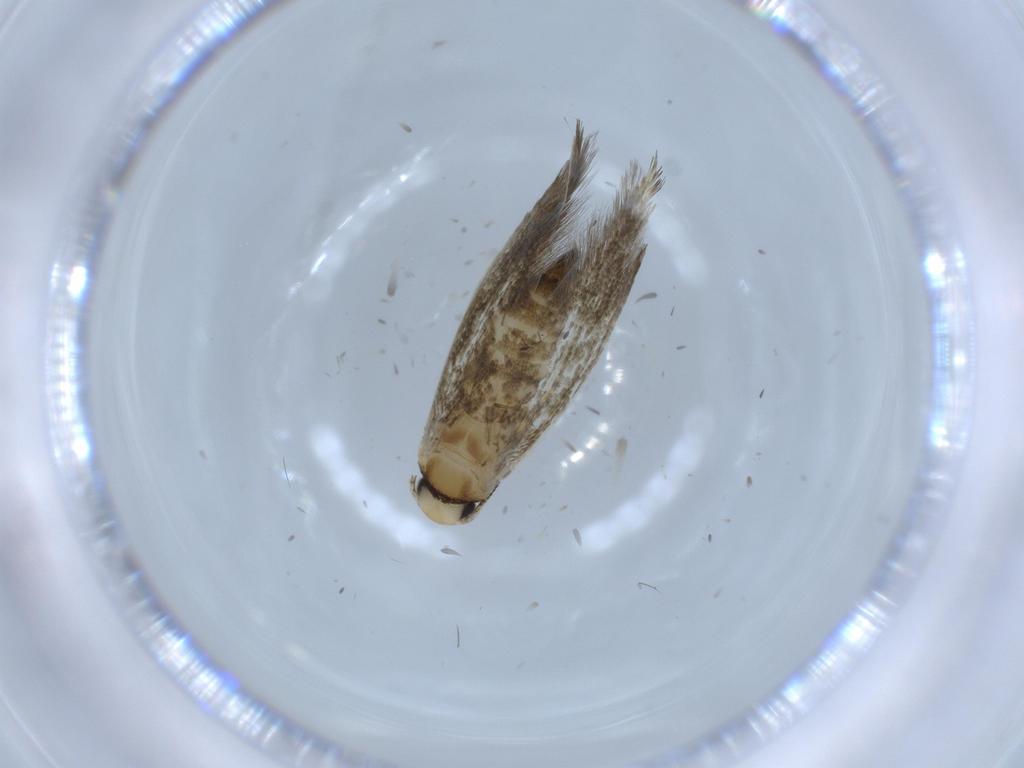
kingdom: Animalia
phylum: Arthropoda
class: Insecta
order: Lepidoptera
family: Tineidae
